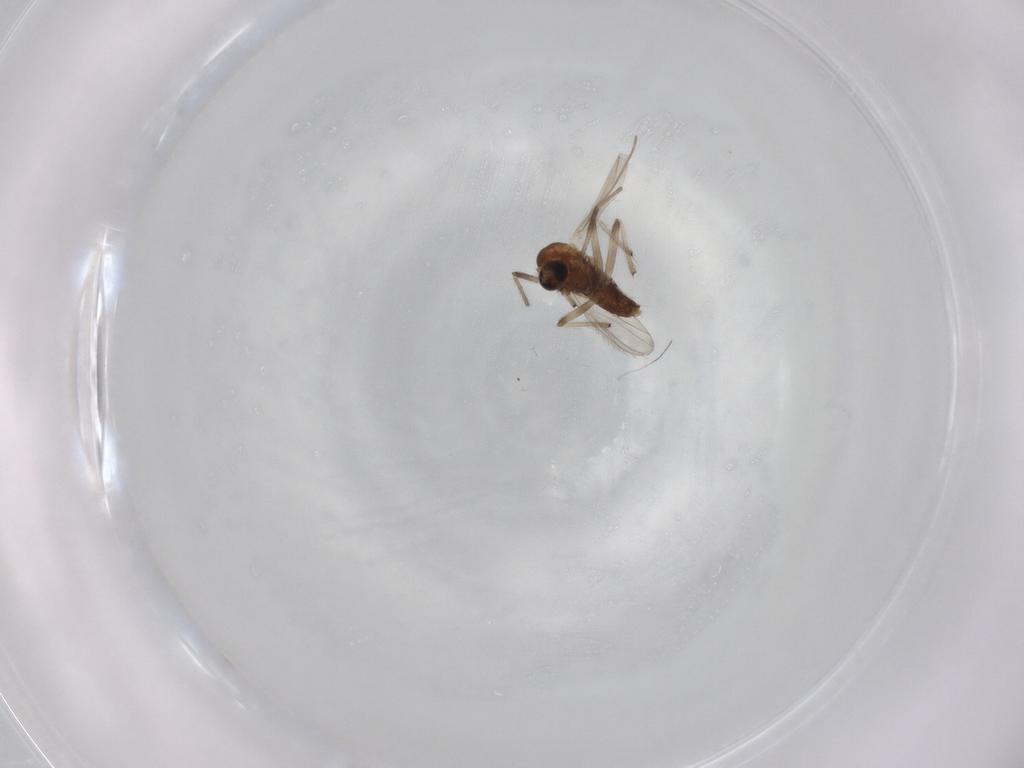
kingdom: Animalia
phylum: Arthropoda
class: Insecta
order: Diptera
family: Chironomidae
